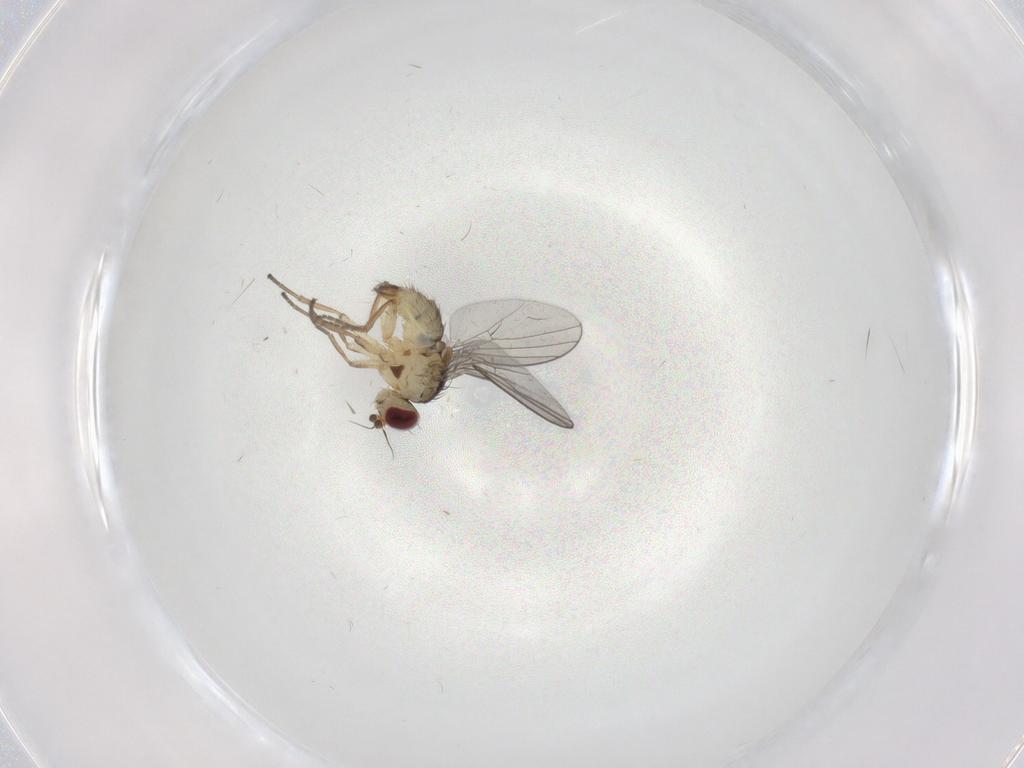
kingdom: Animalia
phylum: Arthropoda
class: Insecta
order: Diptera
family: Agromyzidae
